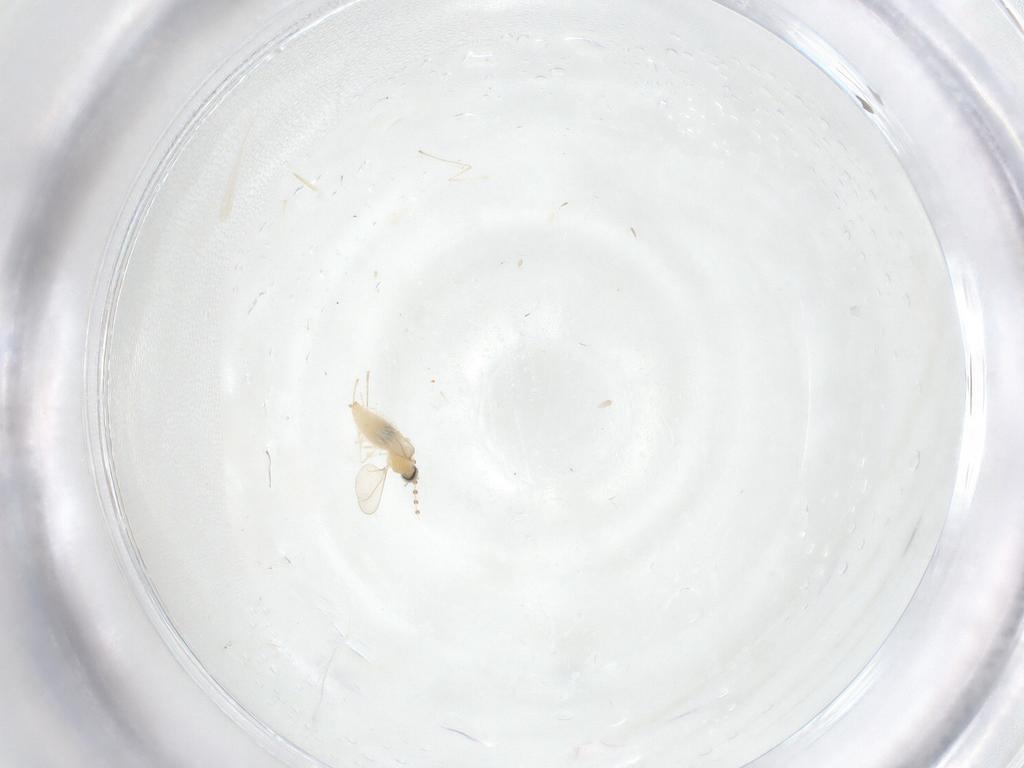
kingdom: Animalia
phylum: Arthropoda
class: Insecta
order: Diptera
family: Cecidomyiidae
